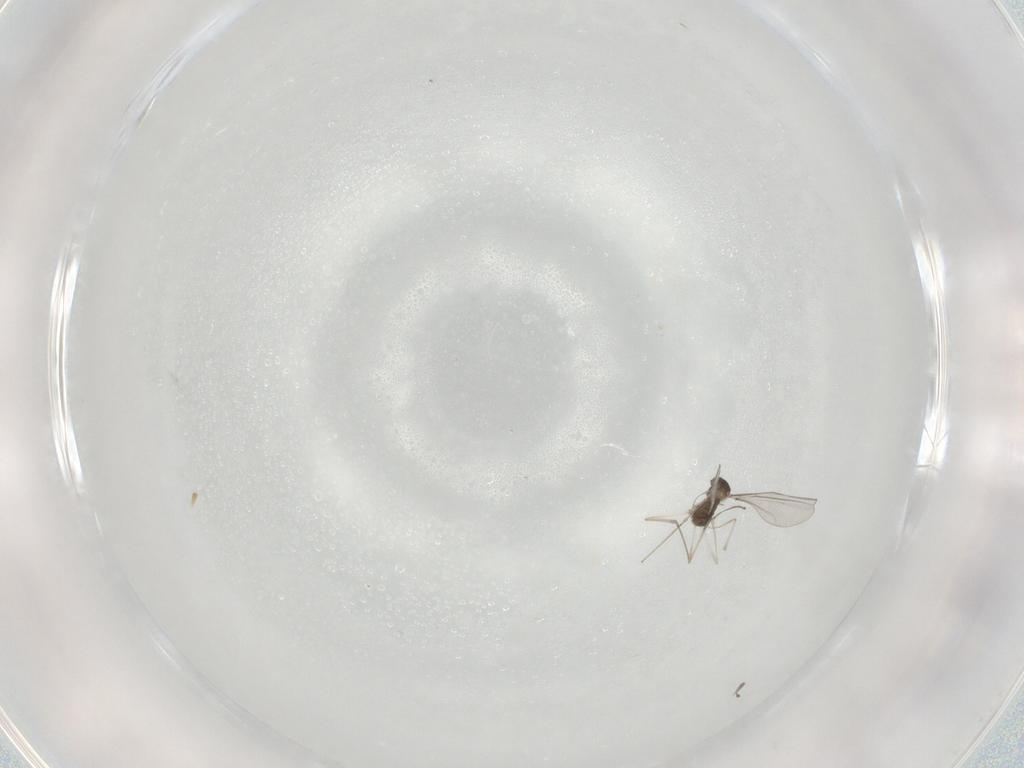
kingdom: Animalia
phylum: Arthropoda
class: Insecta
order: Diptera
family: Cecidomyiidae
